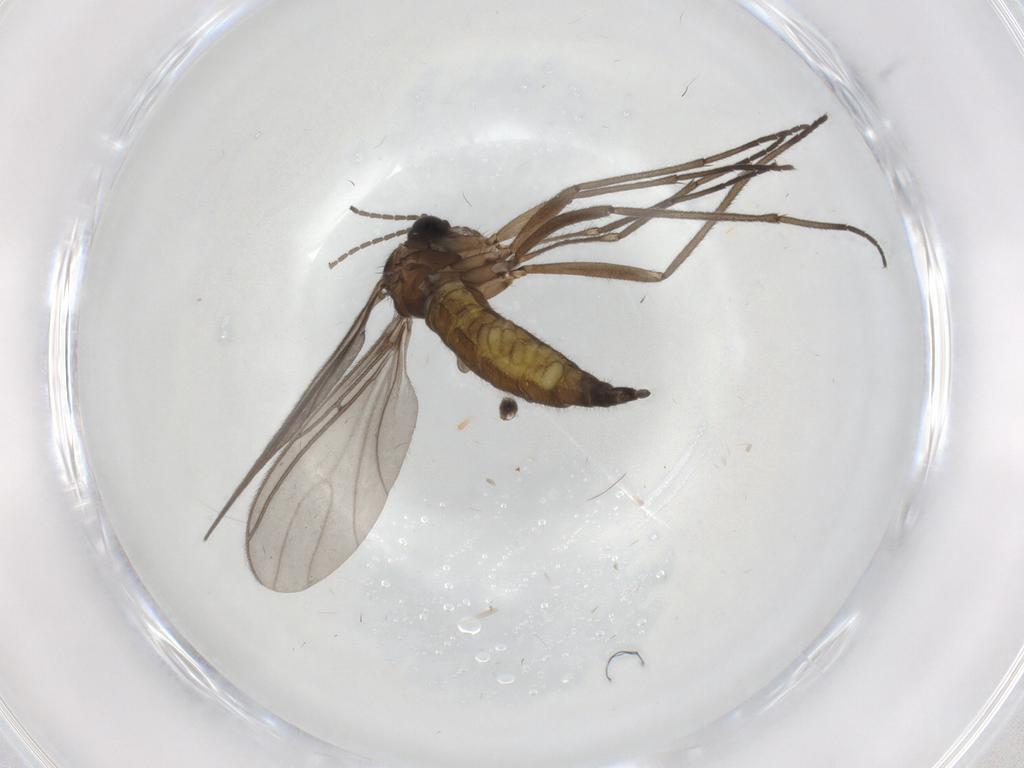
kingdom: Animalia
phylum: Arthropoda
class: Insecta
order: Diptera
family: Sciaridae
